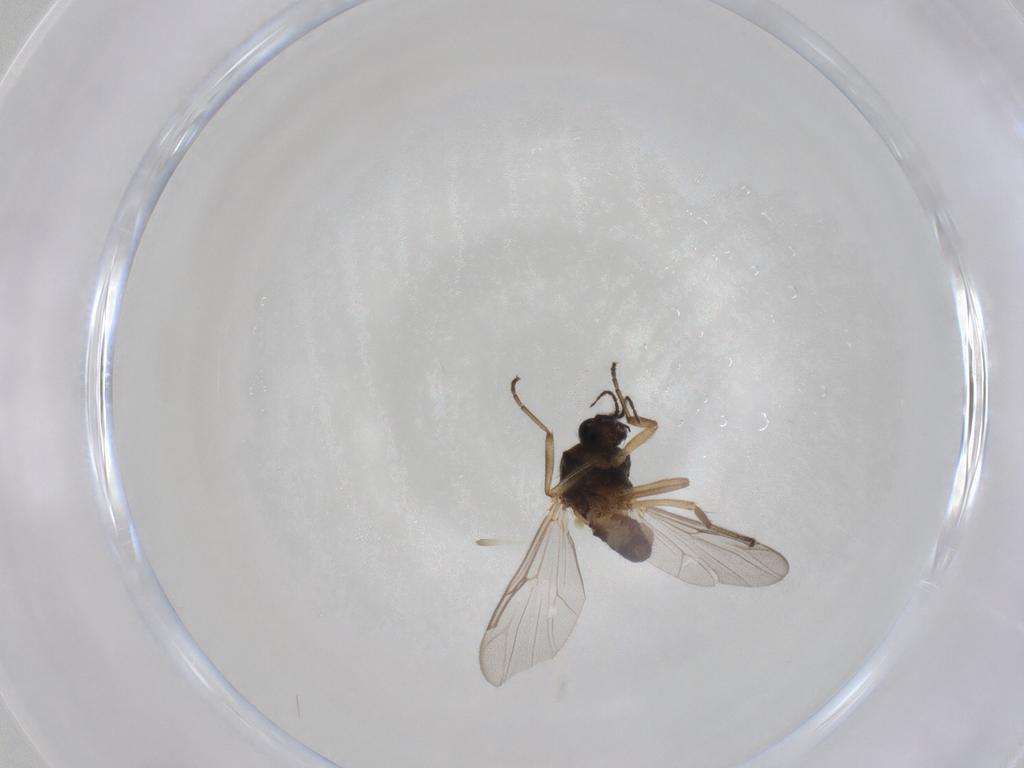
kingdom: Animalia
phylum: Arthropoda
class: Insecta
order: Diptera
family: Ceratopogonidae
